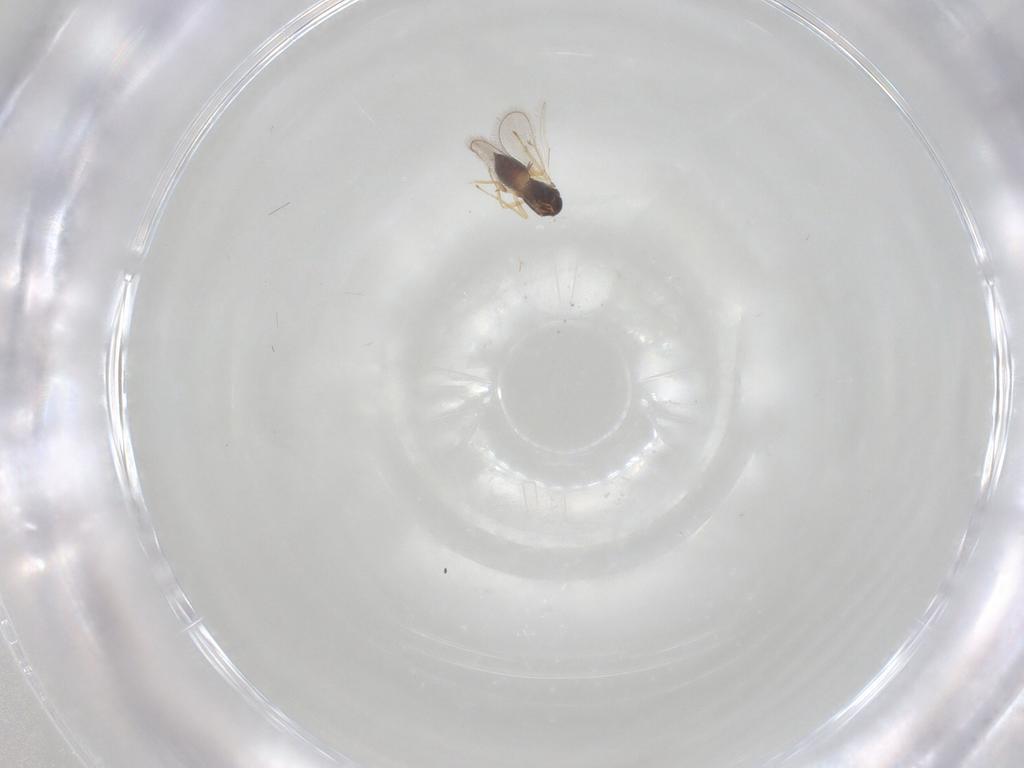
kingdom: Animalia
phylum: Arthropoda
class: Insecta
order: Hymenoptera
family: Eulophidae
